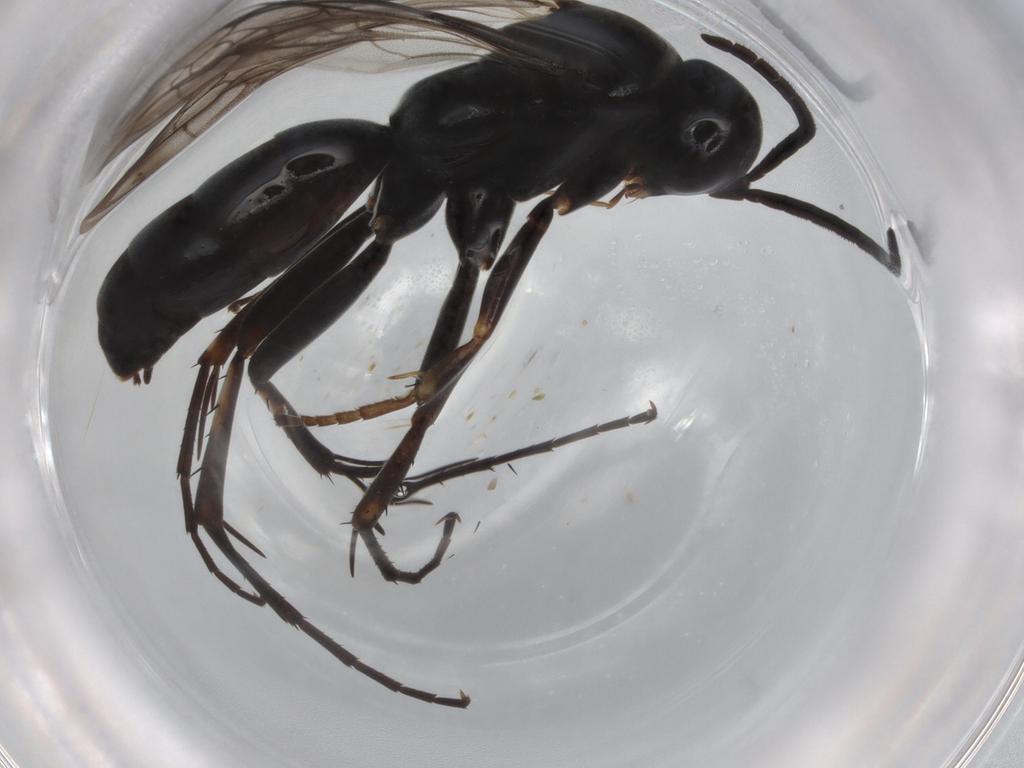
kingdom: Animalia
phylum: Arthropoda
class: Insecta
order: Hymenoptera
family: Pompilidae
